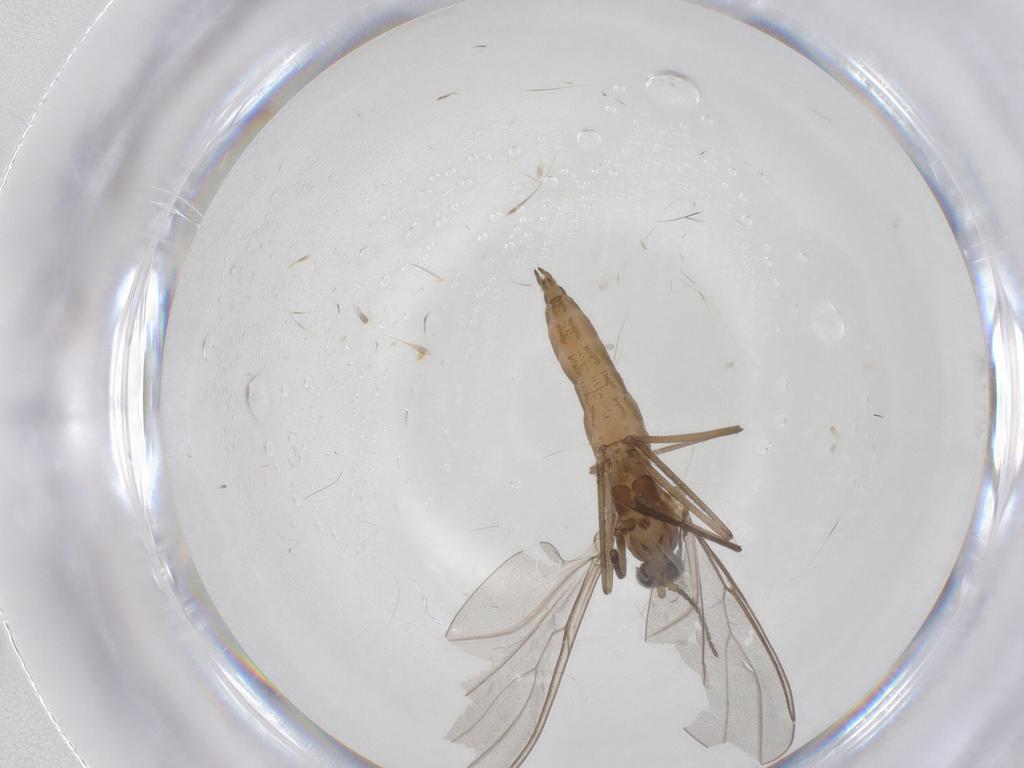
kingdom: Animalia
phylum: Arthropoda
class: Insecta
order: Diptera
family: Cecidomyiidae
